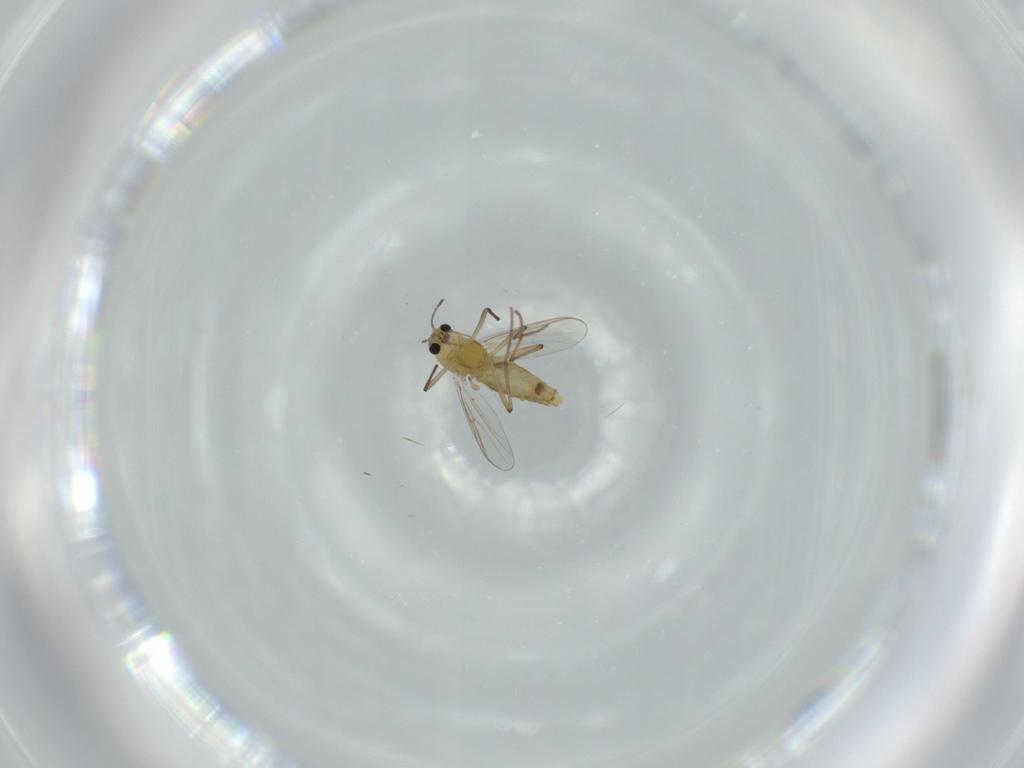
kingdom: Animalia
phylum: Arthropoda
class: Insecta
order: Diptera
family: Chironomidae
